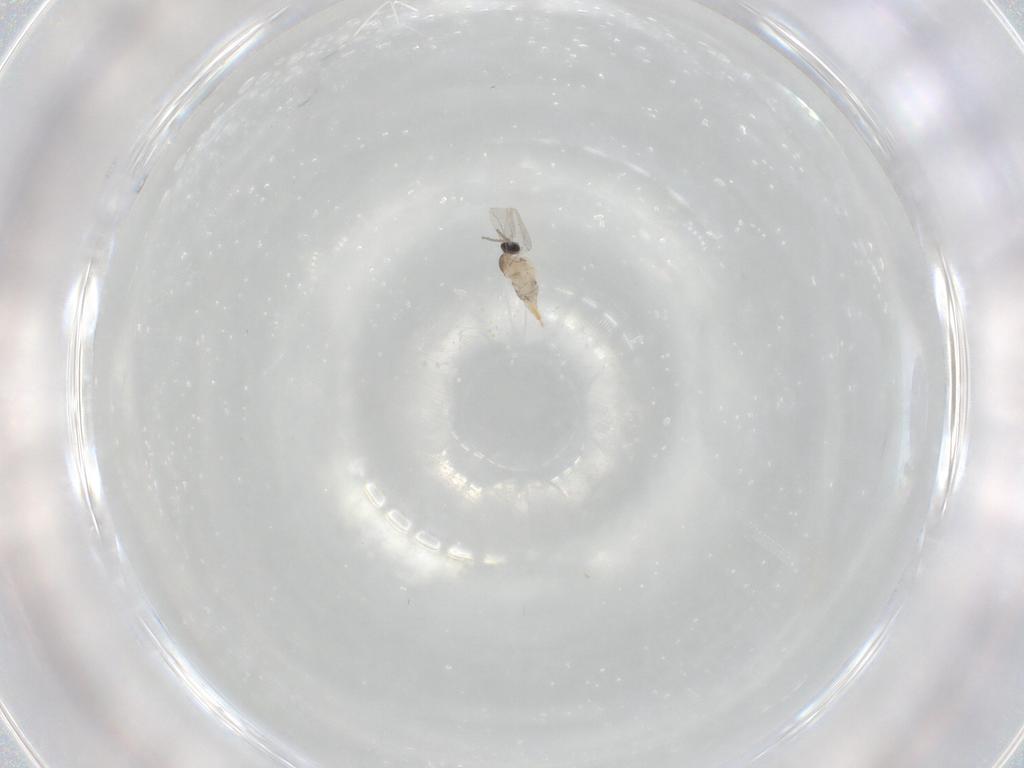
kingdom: Animalia
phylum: Arthropoda
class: Insecta
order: Diptera
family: Cecidomyiidae
